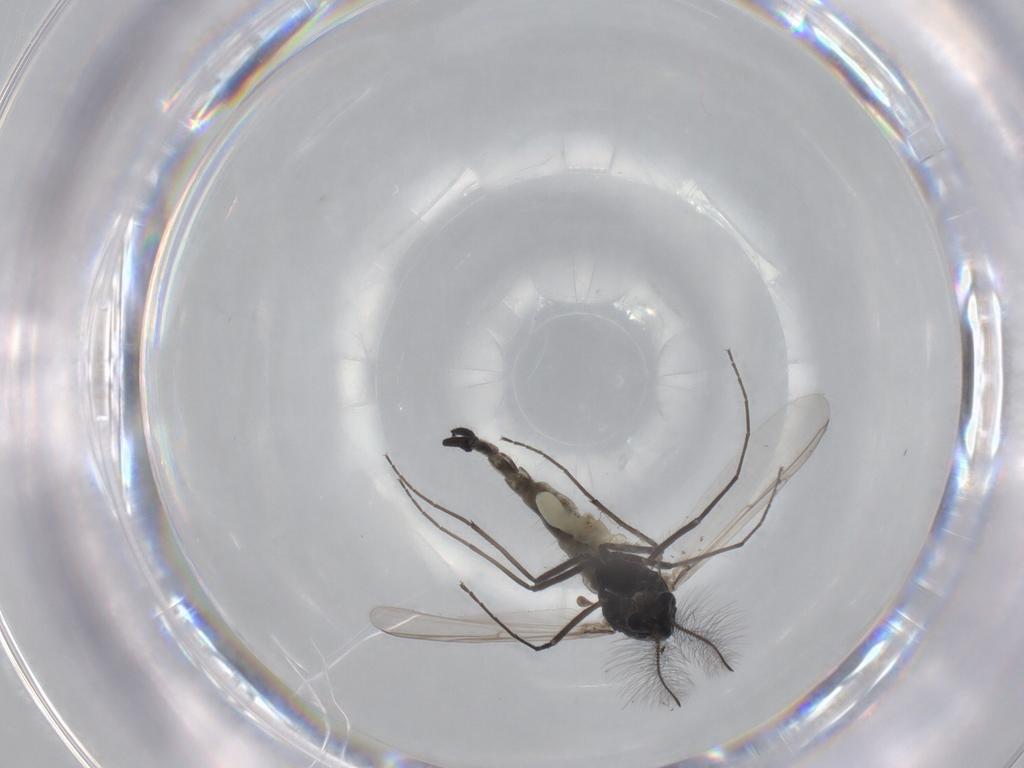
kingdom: Animalia
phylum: Arthropoda
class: Insecta
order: Diptera
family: Chironomidae
